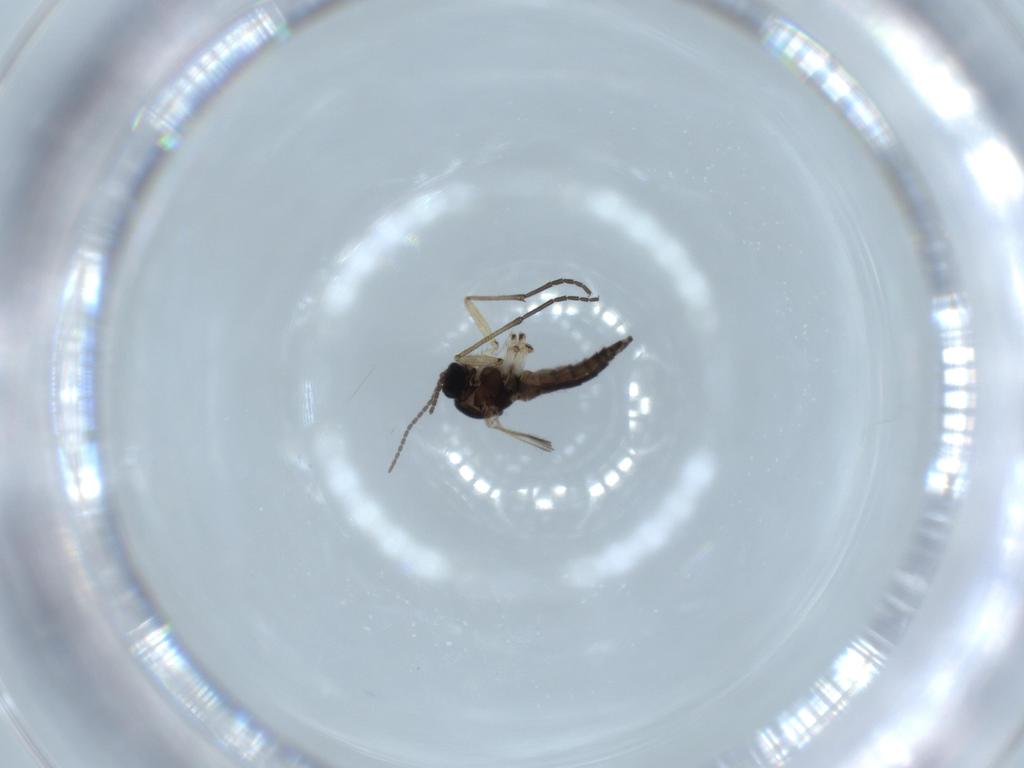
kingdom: Animalia
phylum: Arthropoda
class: Insecta
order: Diptera
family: Sciaridae
